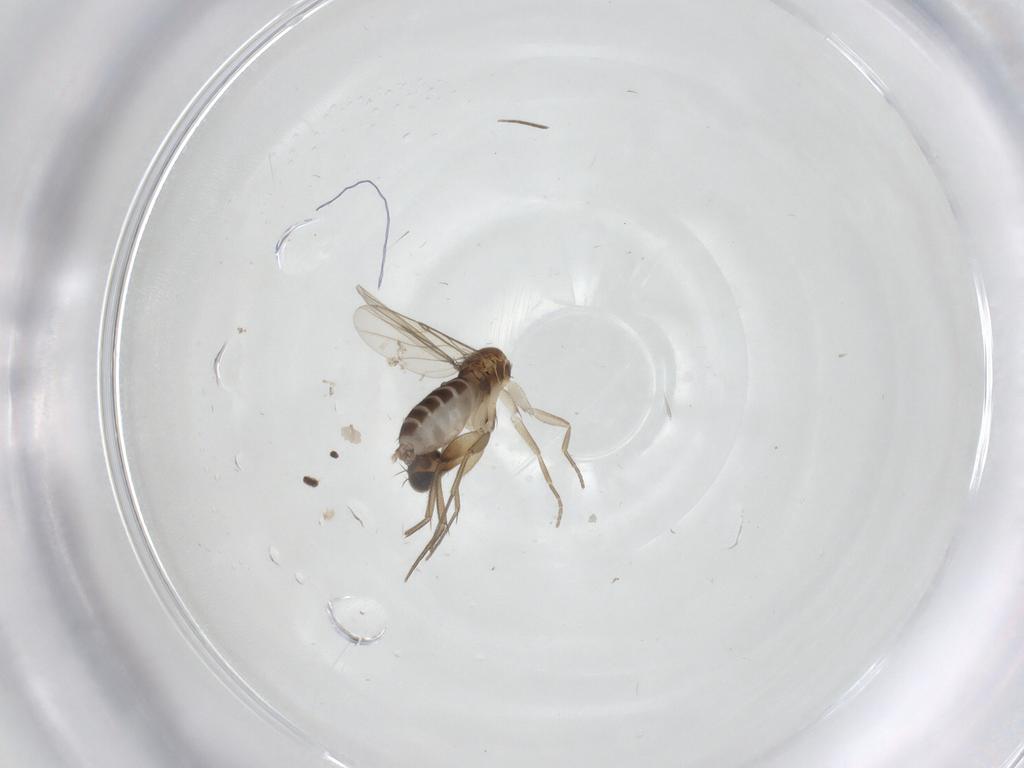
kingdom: Animalia
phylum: Arthropoda
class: Insecta
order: Diptera
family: Phoridae
